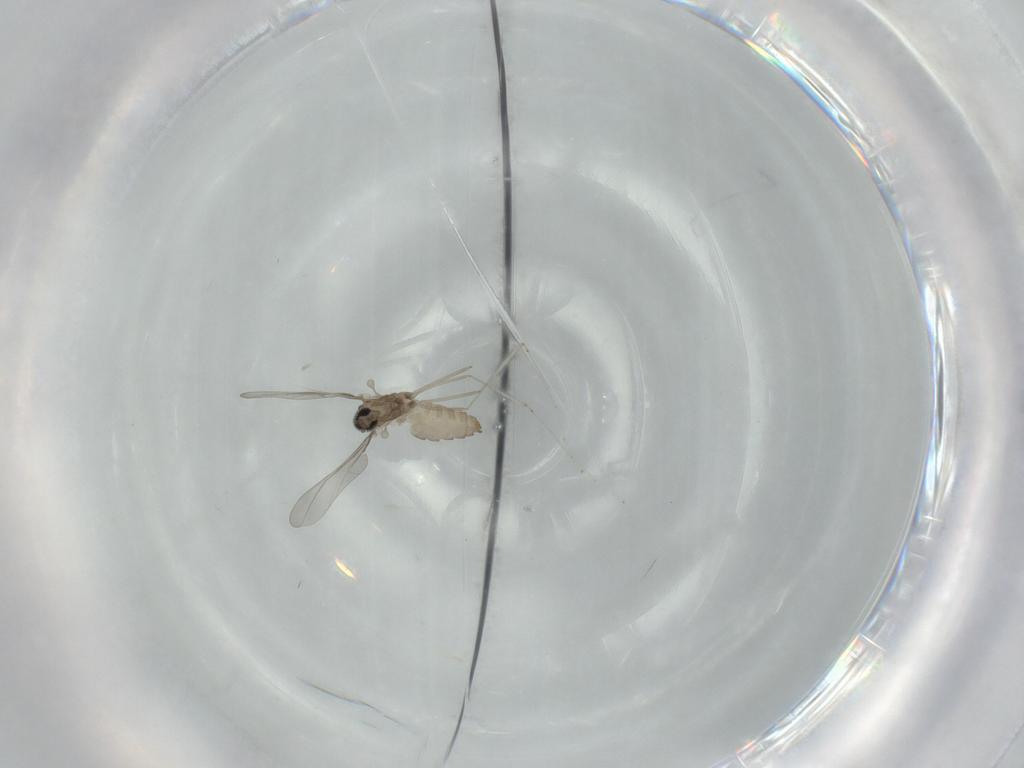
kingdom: Animalia
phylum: Arthropoda
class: Insecta
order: Diptera
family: Cecidomyiidae
